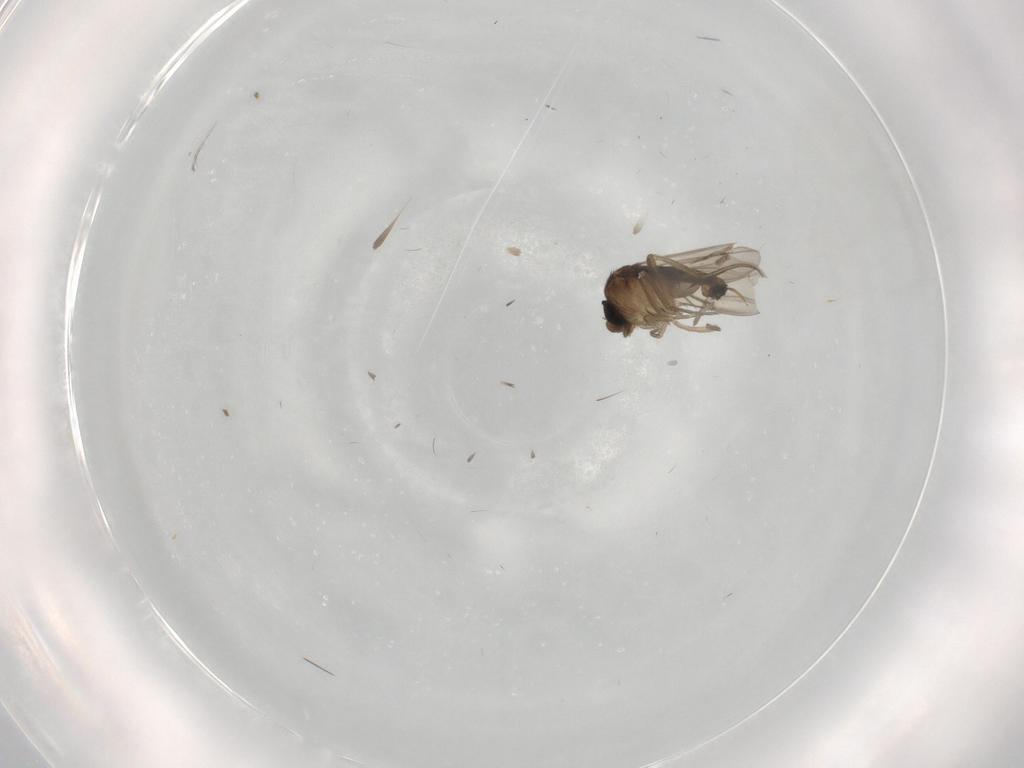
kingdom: Animalia
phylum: Arthropoda
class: Insecta
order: Diptera
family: Phoridae
